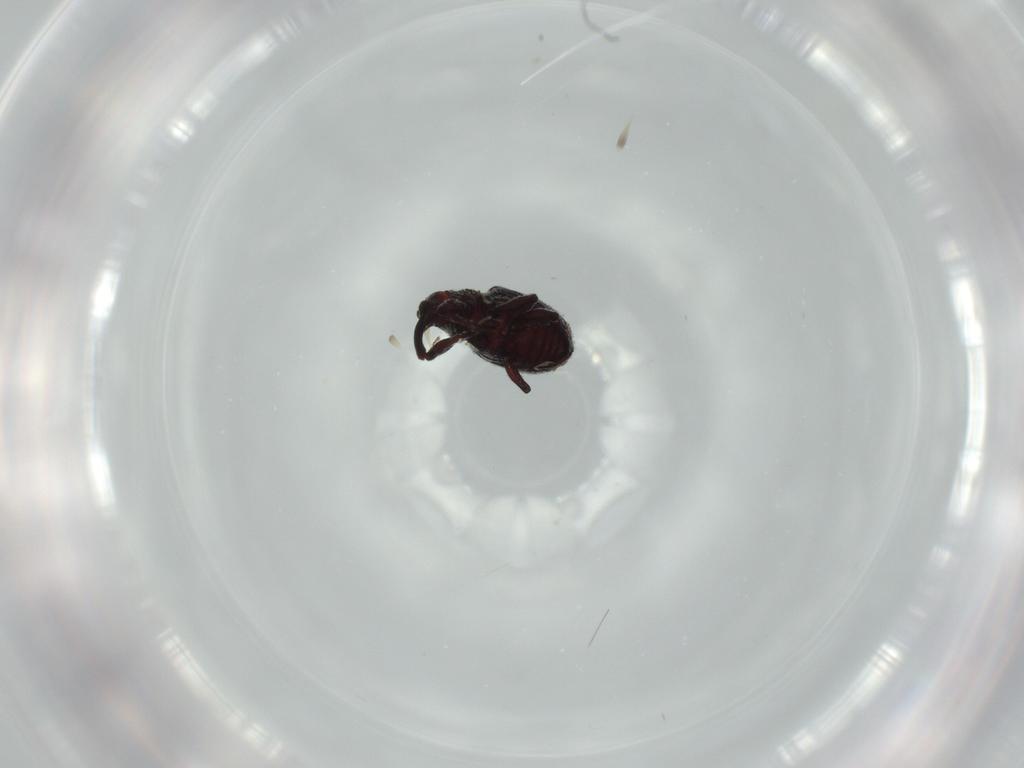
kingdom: Animalia
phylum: Arthropoda
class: Insecta
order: Coleoptera
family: Curculionidae
